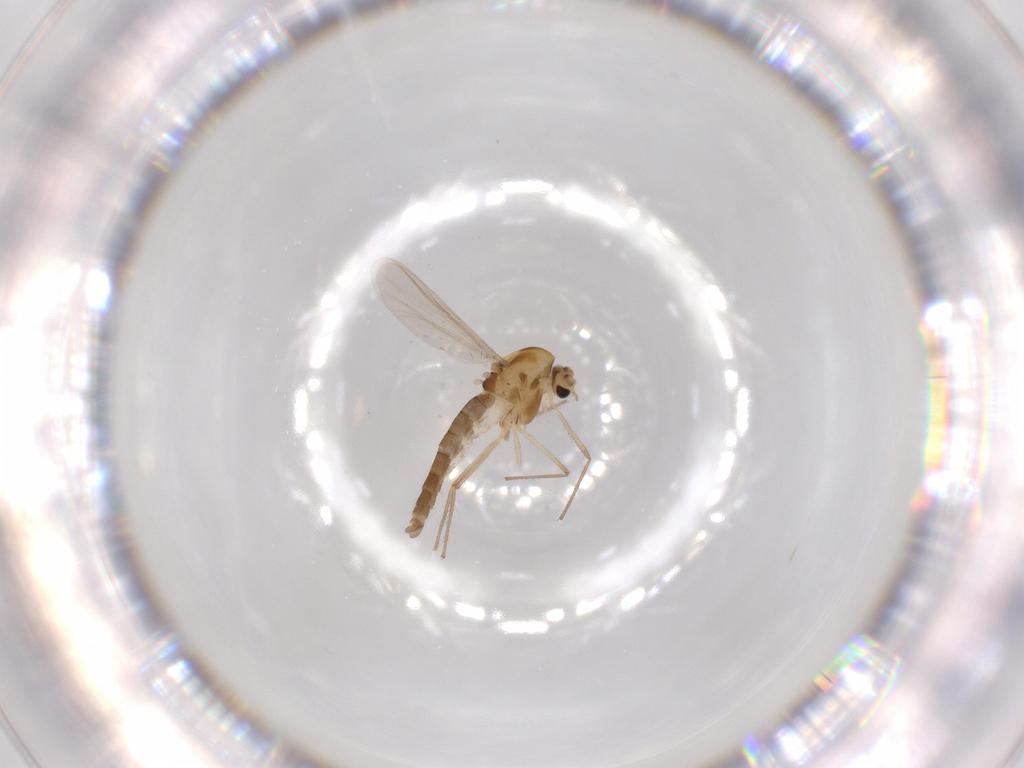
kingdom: Animalia
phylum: Arthropoda
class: Insecta
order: Diptera
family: Chironomidae
